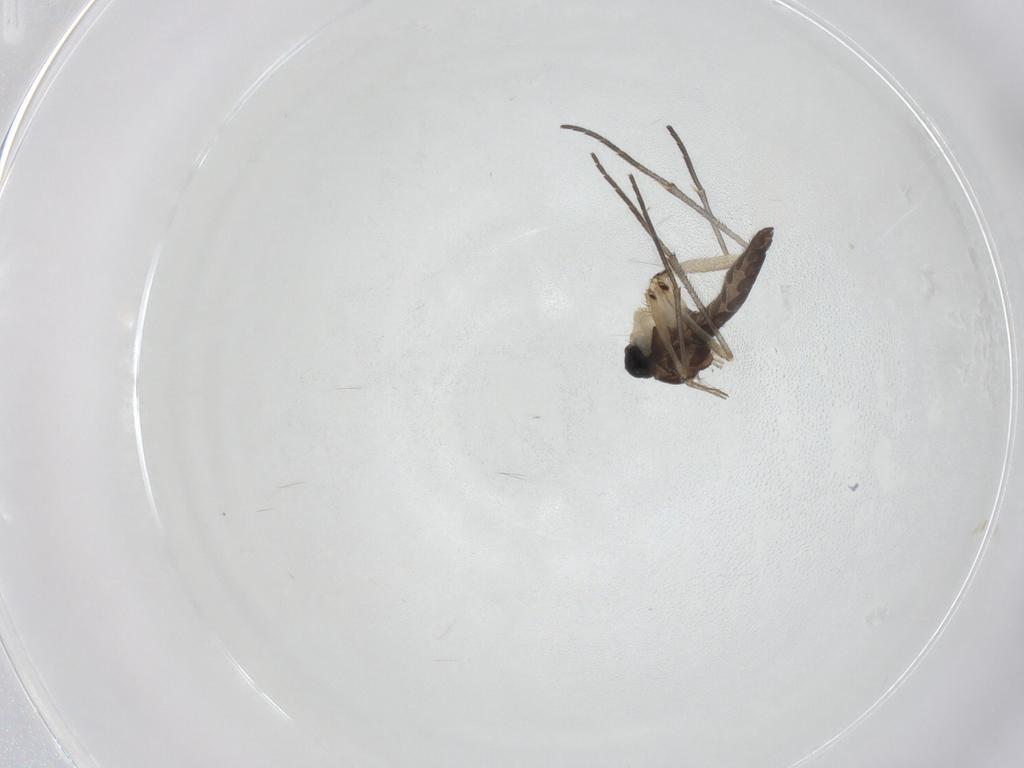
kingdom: Animalia
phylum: Arthropoda
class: Insecta
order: Diptera
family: Sciaridae
